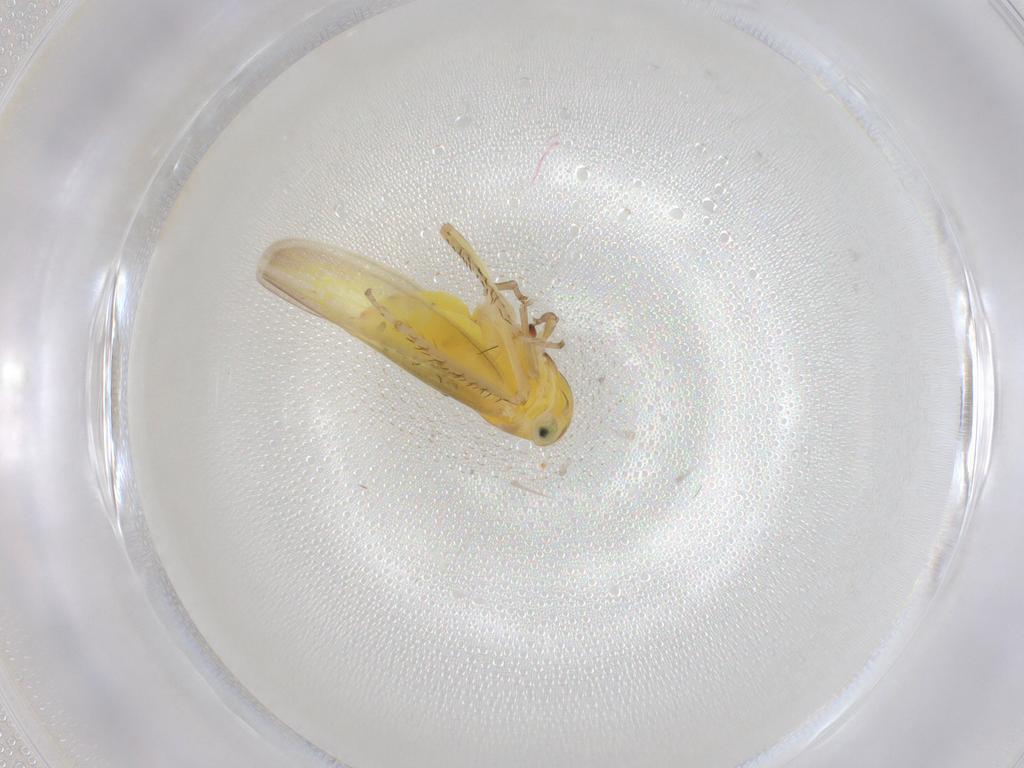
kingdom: Animalia
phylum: Arthropoda
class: Insecta
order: Hemiptera
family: Cicadellidae
